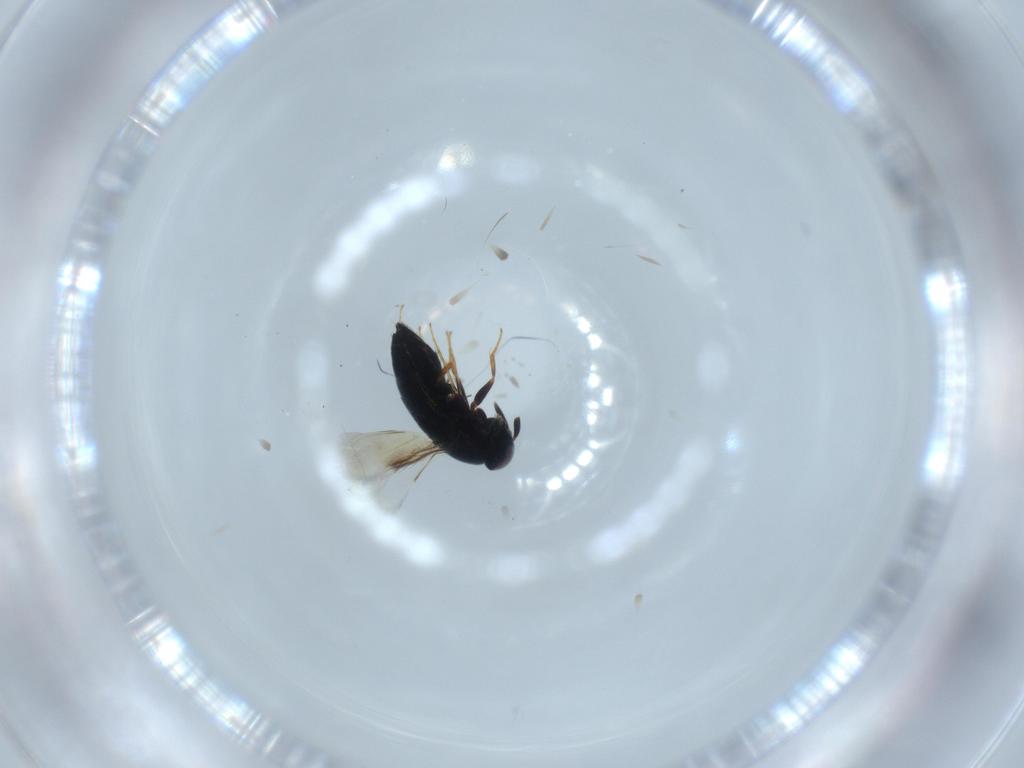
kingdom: Animalia
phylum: Arthropoda
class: Insecta
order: Hymenoptera
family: Signiphoridae
